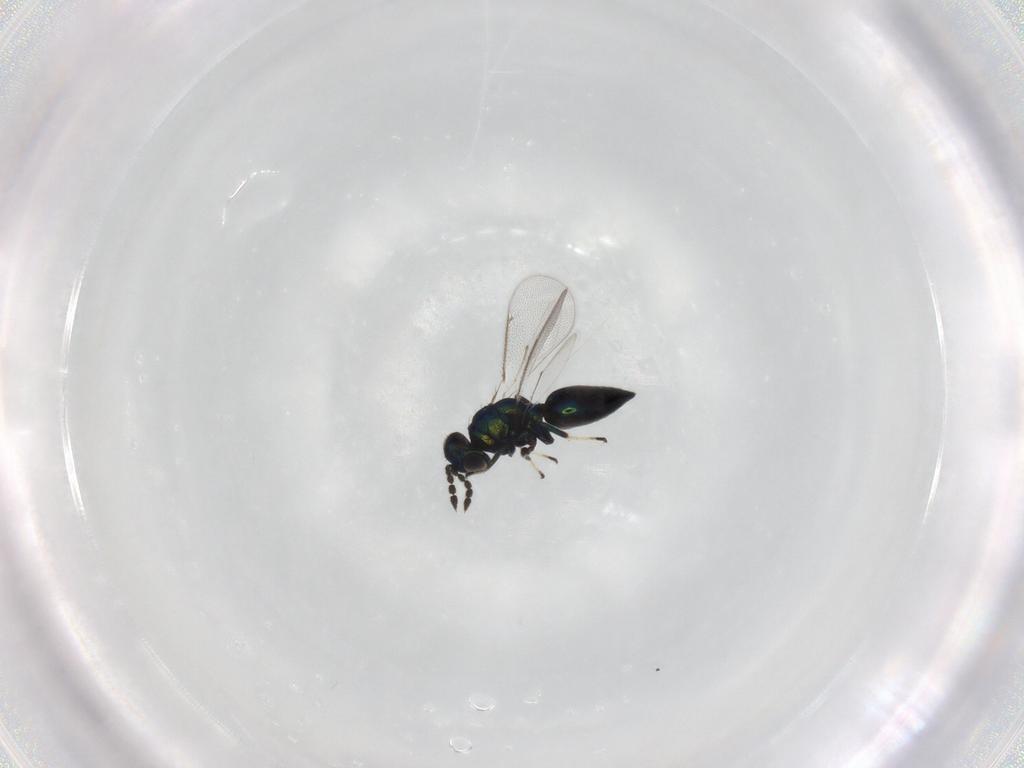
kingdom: Animalia
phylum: Arthropoda
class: Insecta
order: Hymenoptera
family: Eulophidae
